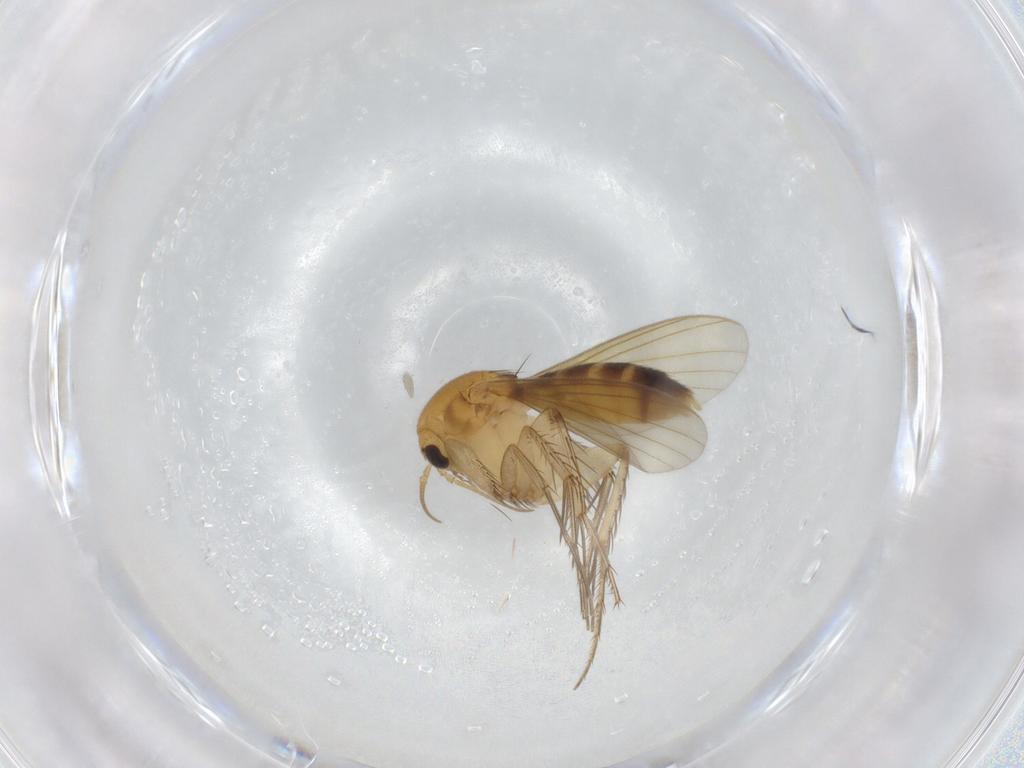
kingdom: Animalia
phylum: Arthropoda
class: Insecta
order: Diptera
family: Mycetophilidae
